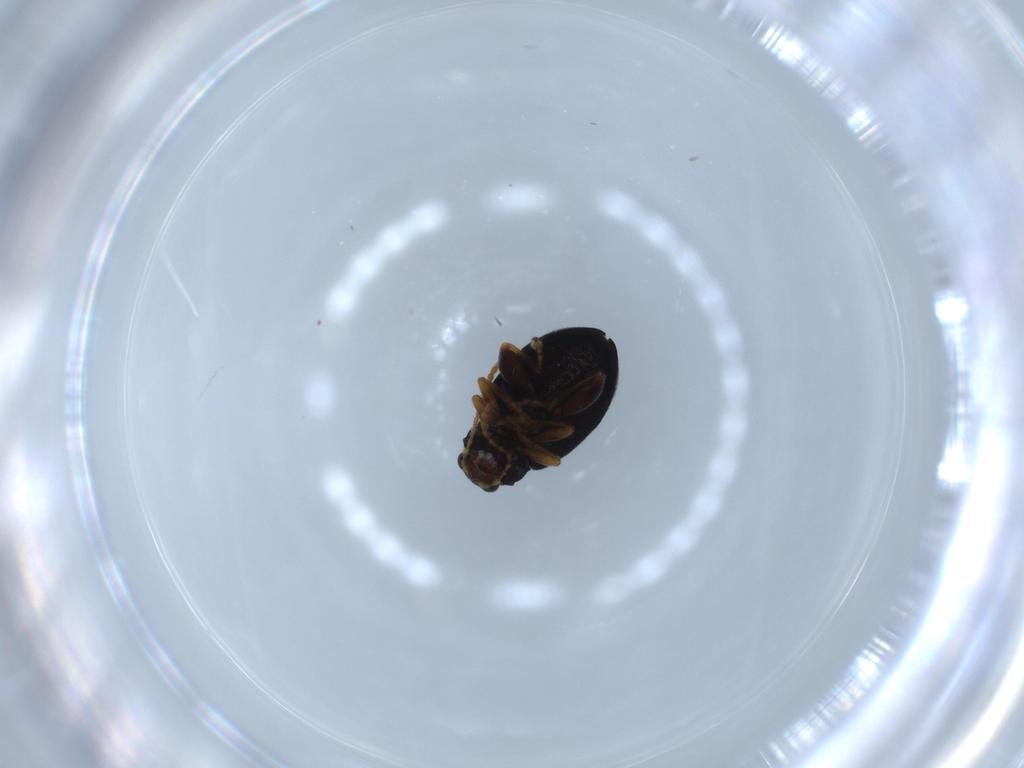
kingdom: Animalia
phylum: Arthropoda
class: Insecta
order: Coleoptera
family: Chrysomelidae
